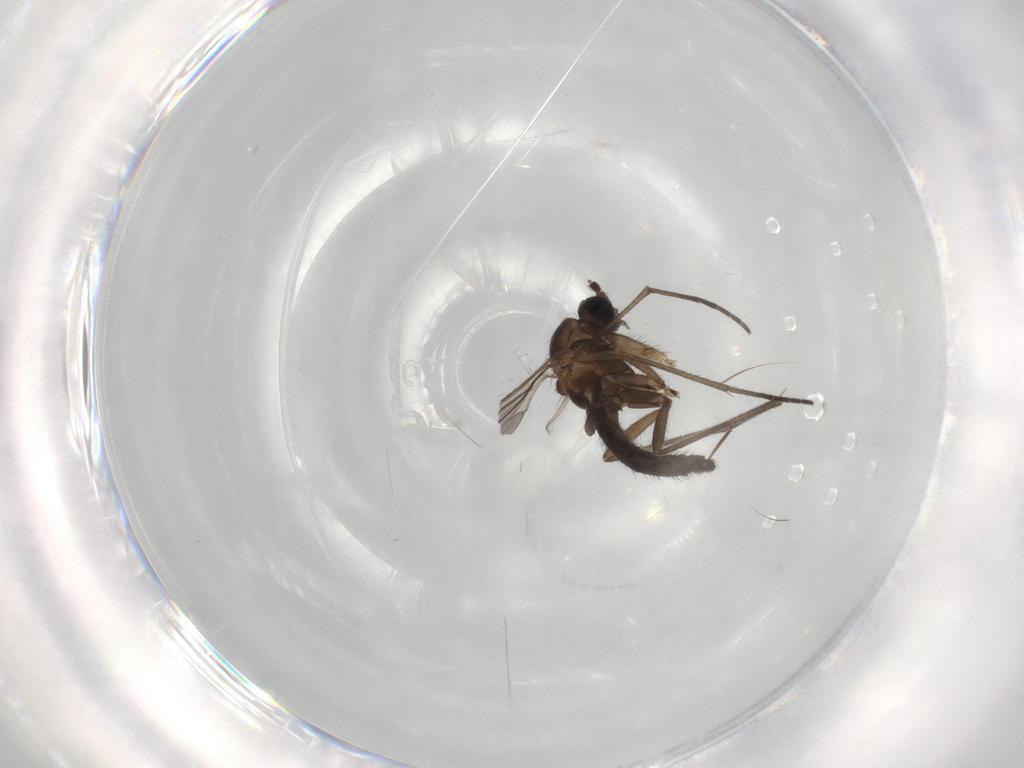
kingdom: Animalia
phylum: Arthropoda
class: Insecta
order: Diptera
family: Sciaridae
